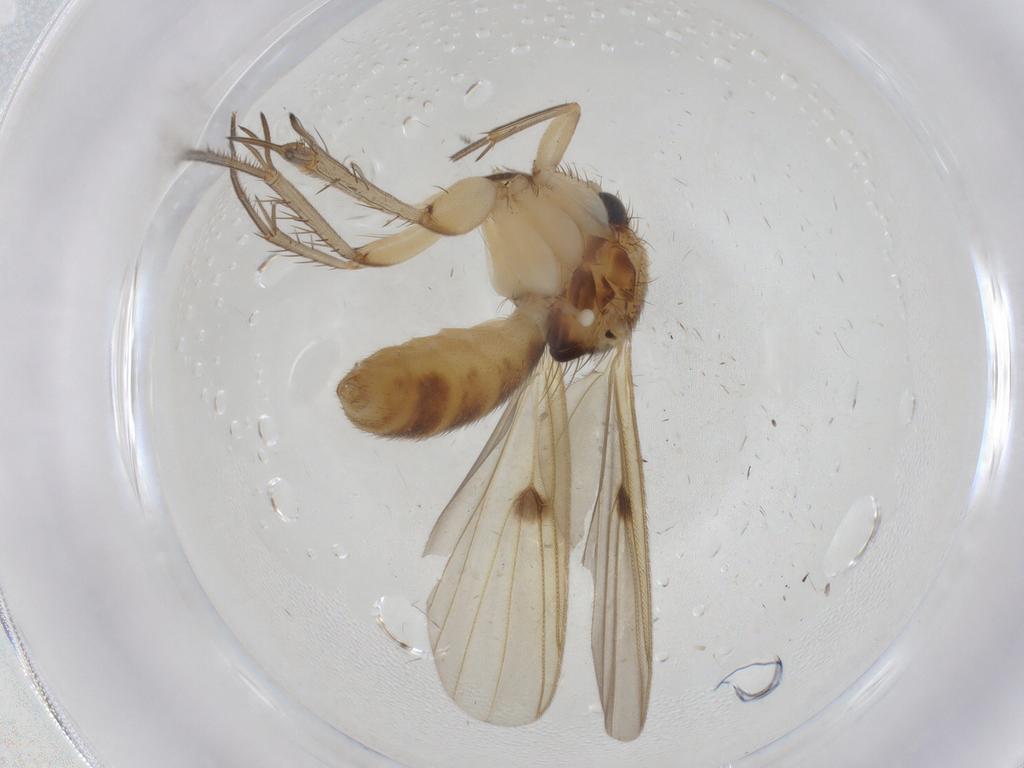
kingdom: Animalia
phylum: Arthropoda
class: Insecta
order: Diptera
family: Mycetophilidae
